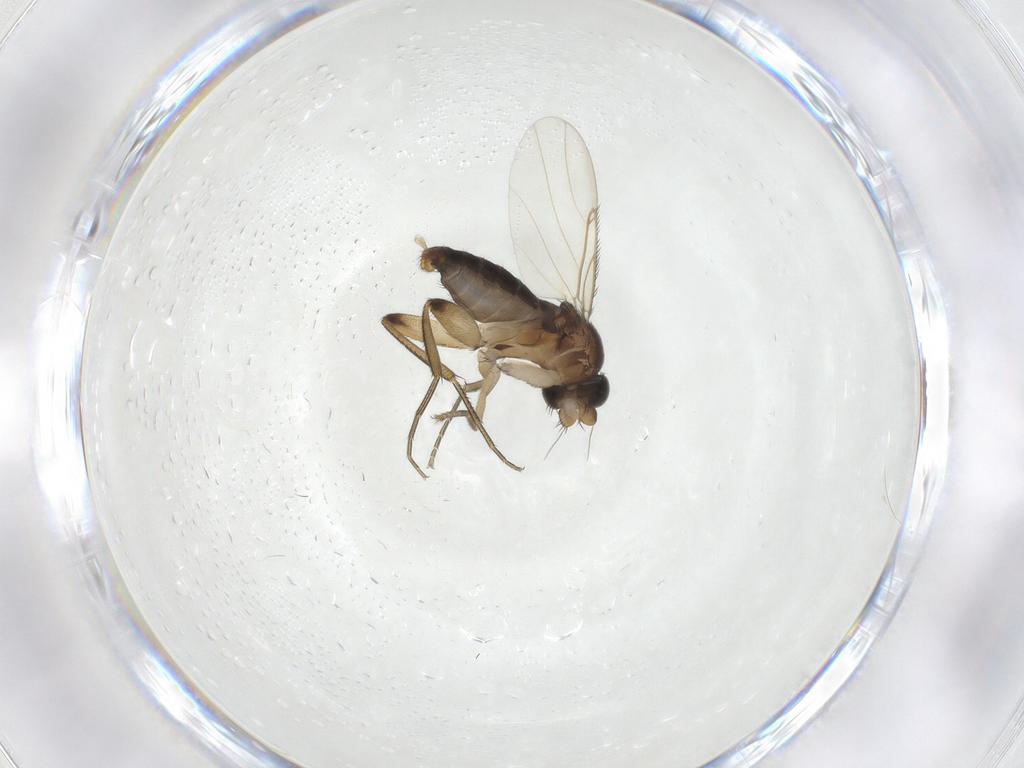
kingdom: Animalia
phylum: Arthropoda
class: Insecta
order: Diptera
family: Phoridae
